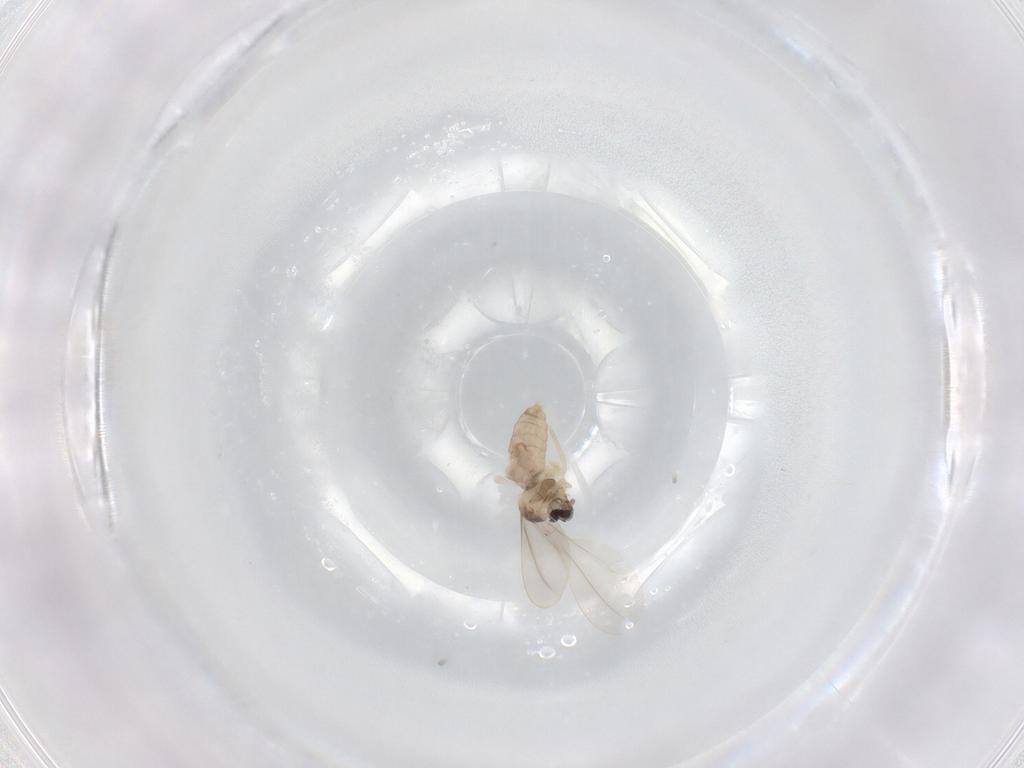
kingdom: Animalia
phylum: Arthropoda
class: Insecta
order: Diptera
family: Cecidomyiidae
